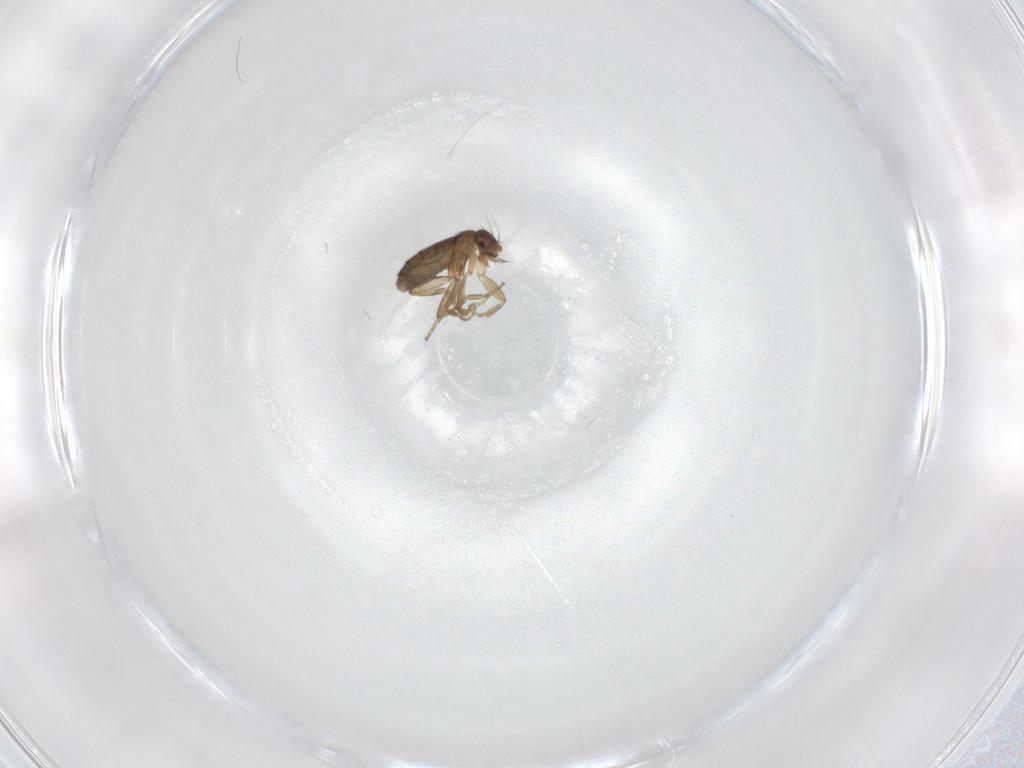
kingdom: Animalia
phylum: Arthropoda
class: Insecta
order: Diptera
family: Phoridae
